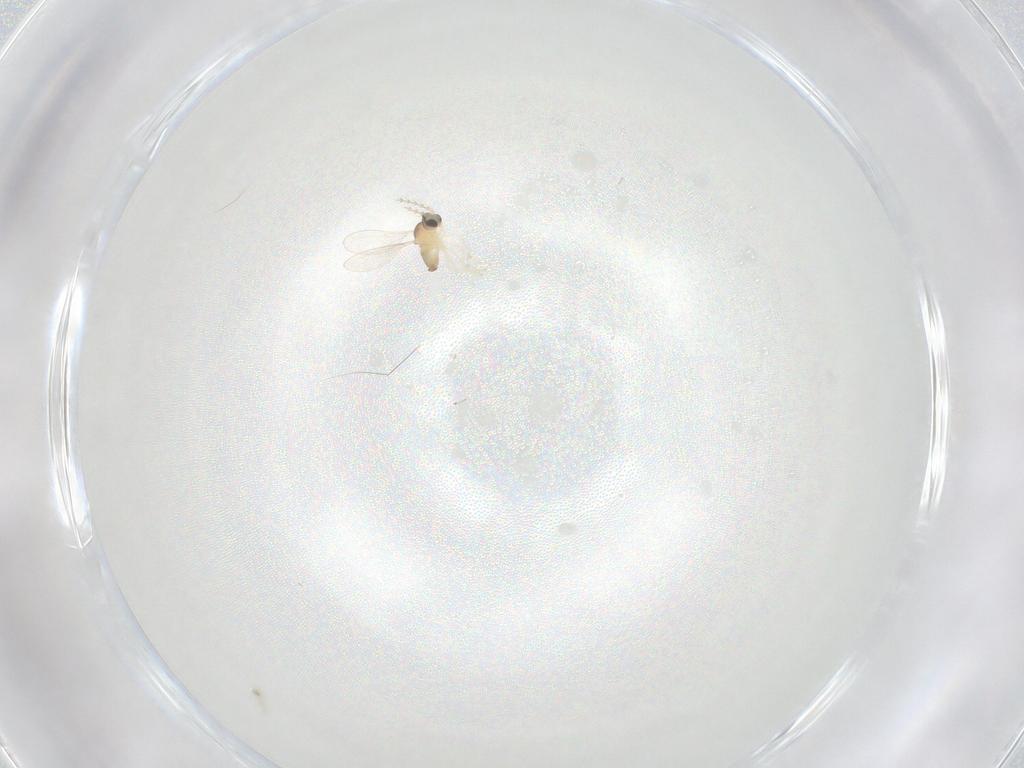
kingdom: Animalia
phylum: Arthropoda
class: Insecta
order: Diptera
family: Cecidomyiidae
